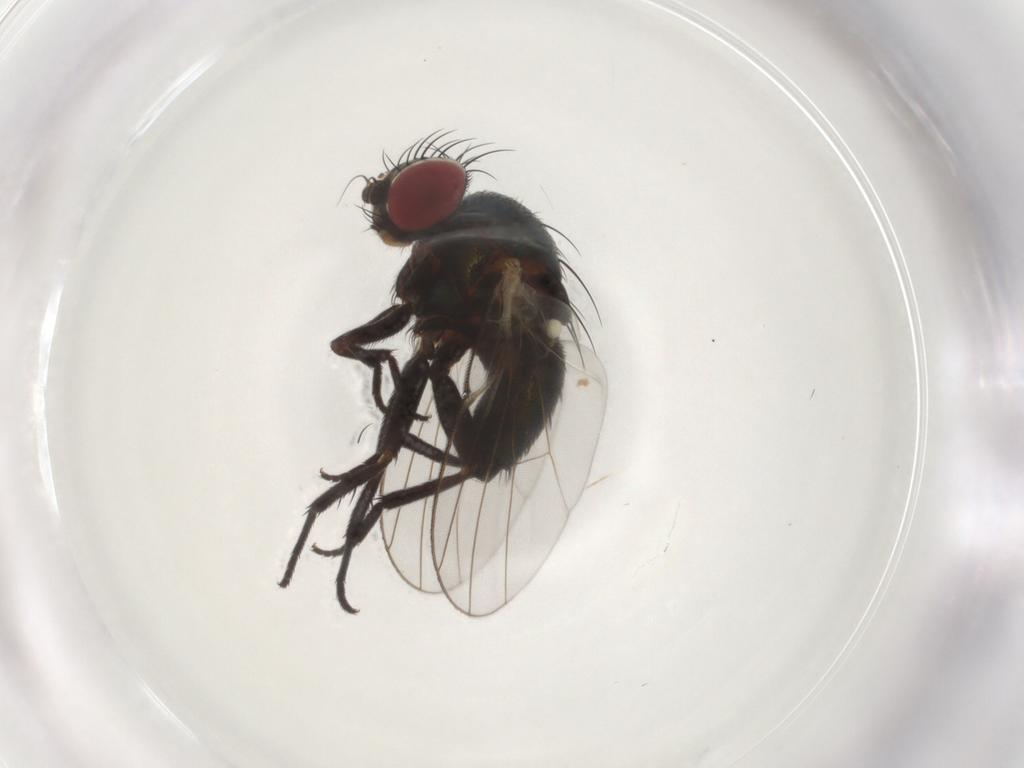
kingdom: Animalia
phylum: Arthropoda
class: Insecta
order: Diptera
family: Agromyzidae
